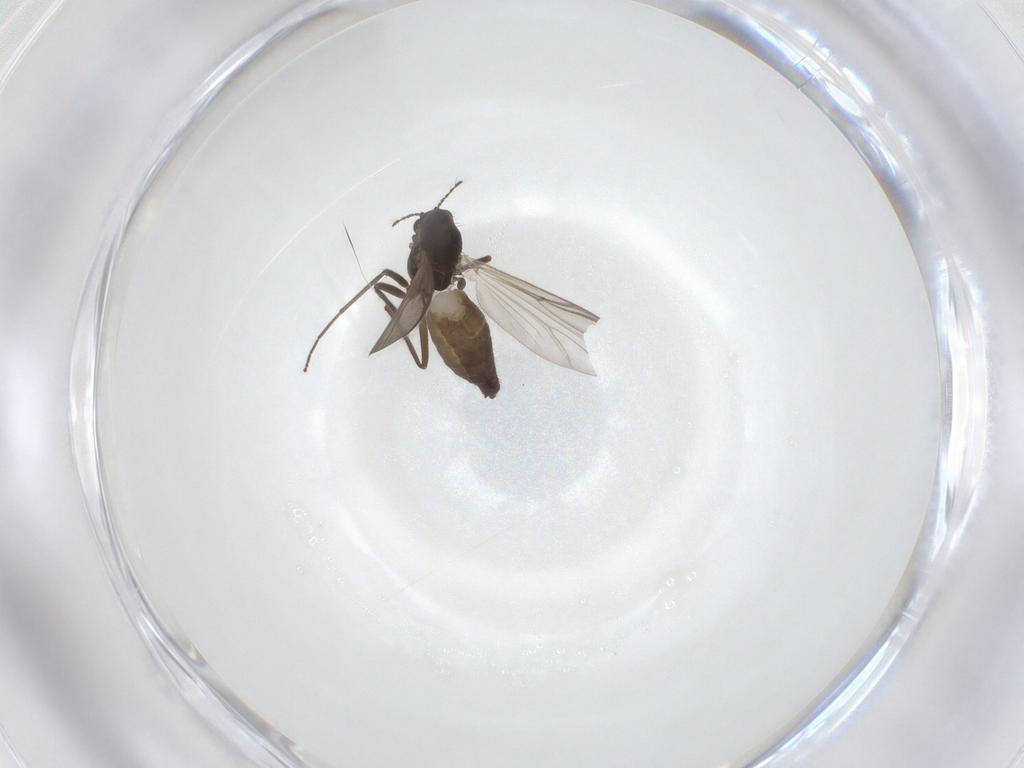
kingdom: Animalia
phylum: Arthropoda
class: Insecta
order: Diptera
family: Chironomidae
